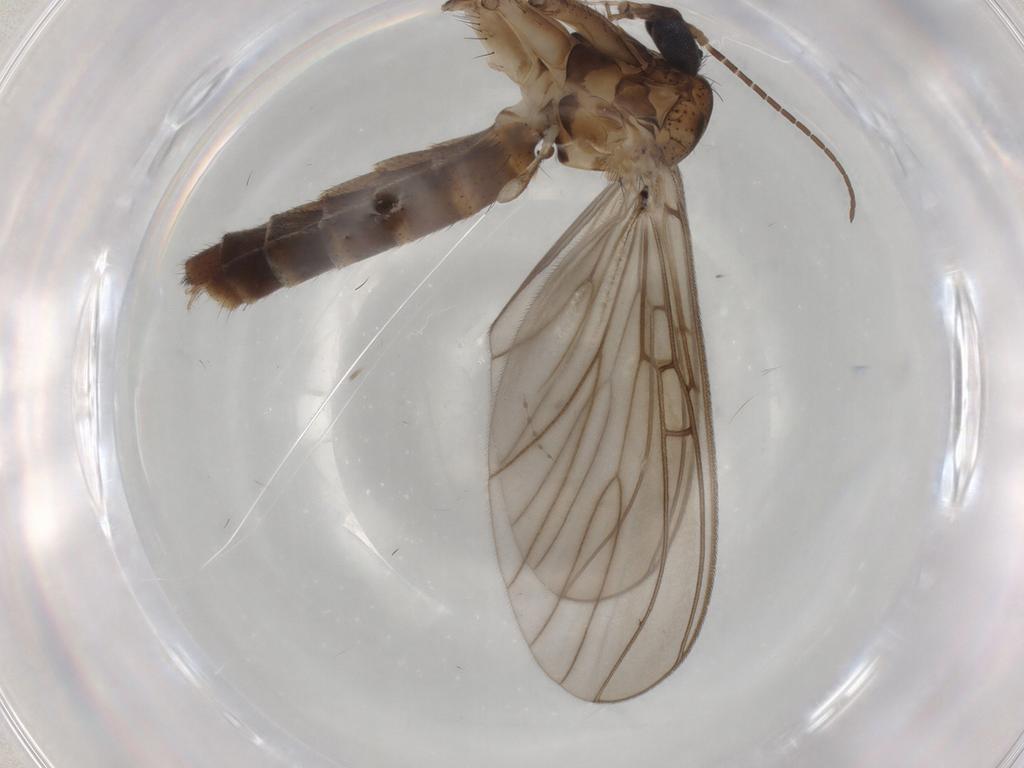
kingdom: Animalia
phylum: Arthropoda
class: Insecta
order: Diptera
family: Mycetophilidae
